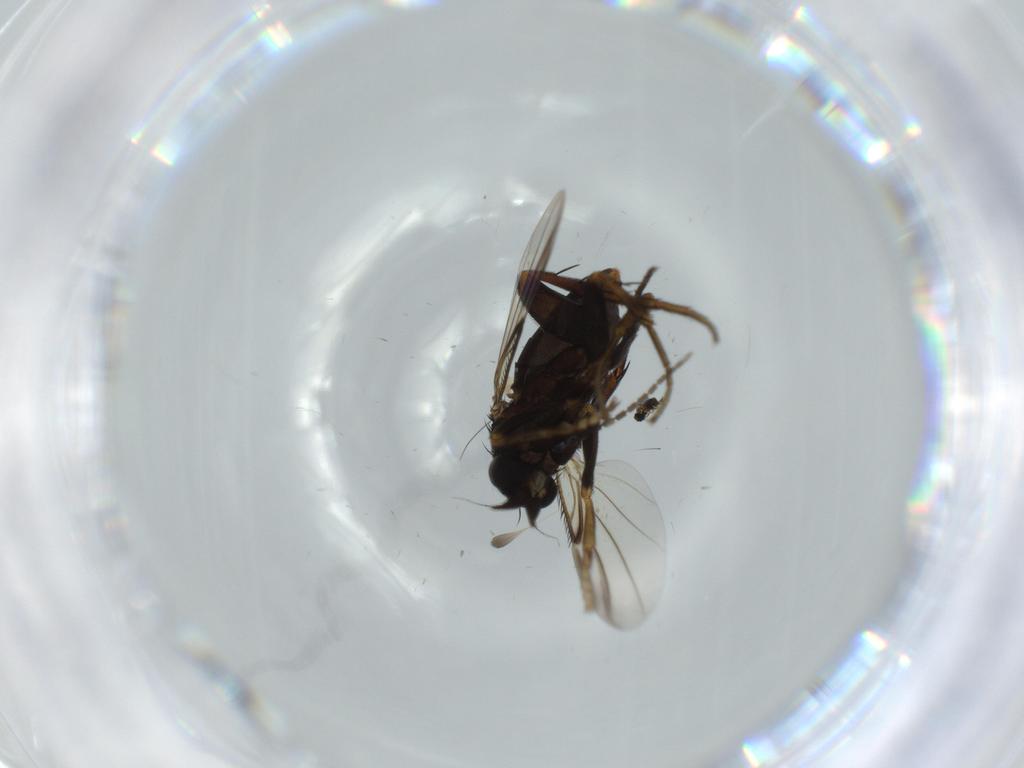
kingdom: Animalia
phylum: Arthropoda
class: Insecta
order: Diptera
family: Phoridae
